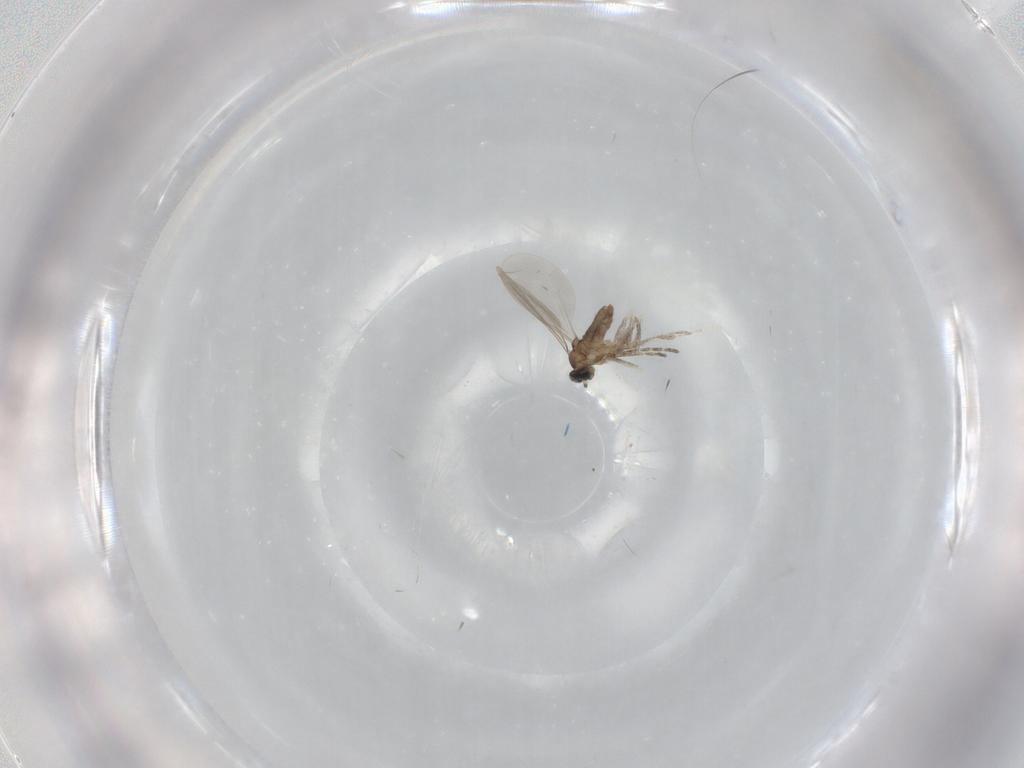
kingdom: Animalia
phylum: Arthropoda
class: Insecta
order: Diptera
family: Cecidomyiidae
